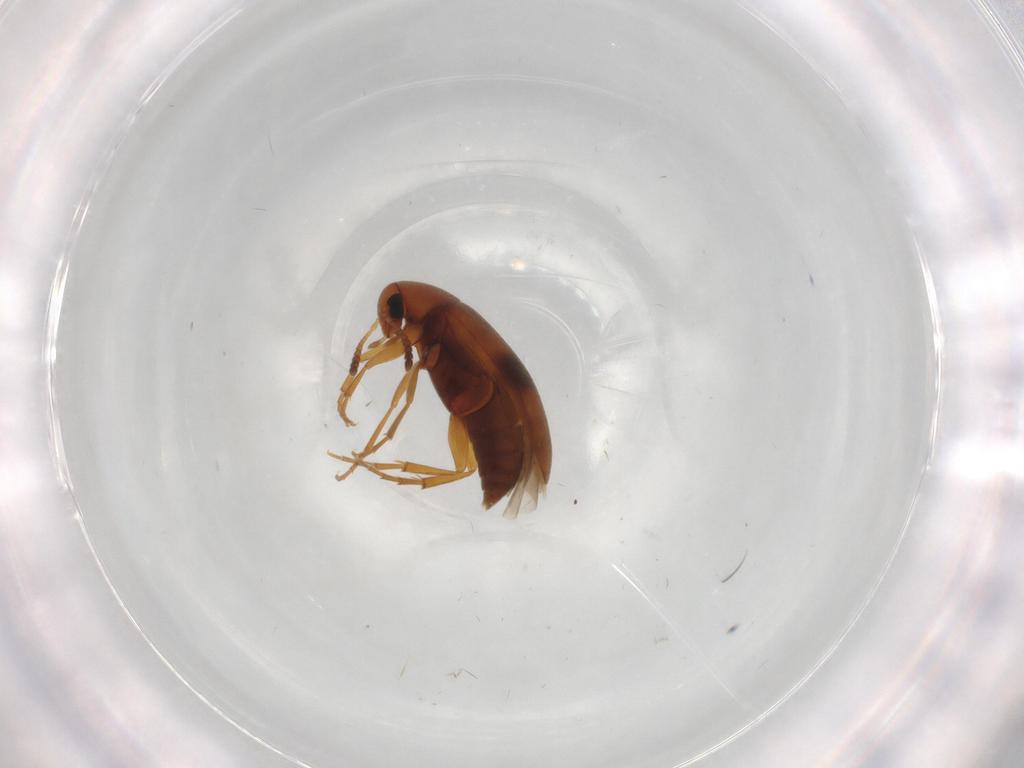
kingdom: Animalia
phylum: Arthropoda
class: Insecta
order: Coleoptera
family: Scraptiidae
